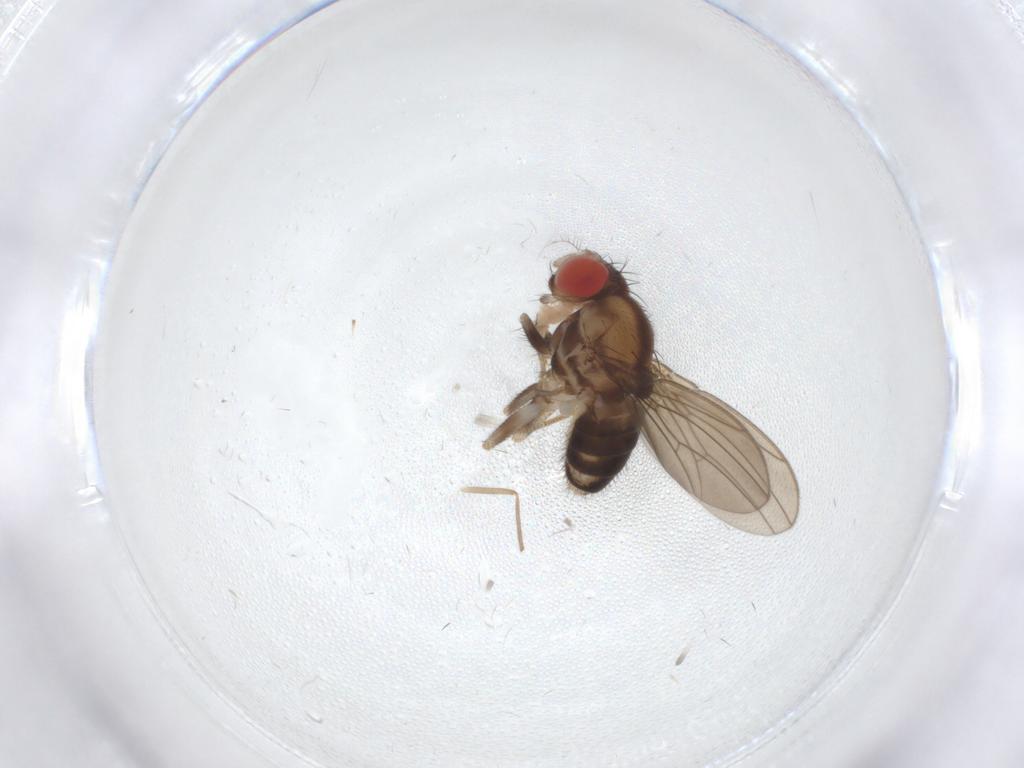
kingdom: Animalia
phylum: Arthropoda
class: Insecta
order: Diptera
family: Drosophilidae
